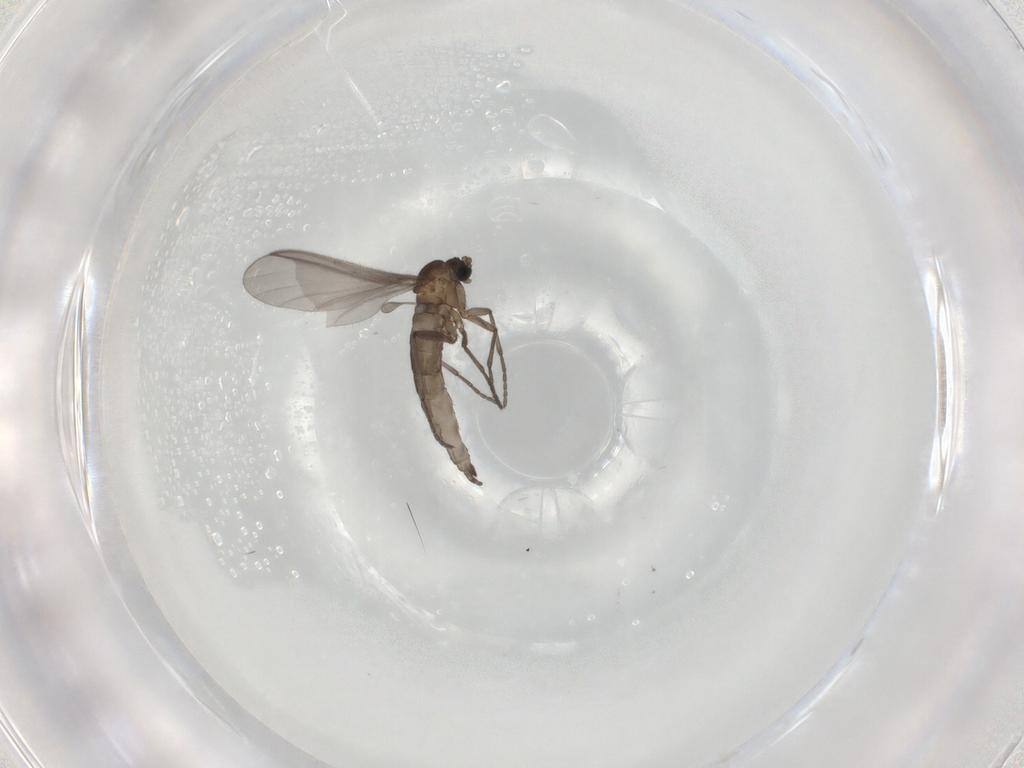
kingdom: Animalia
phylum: Arthropoda
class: Insecta
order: Diptera
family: Sciaridae
